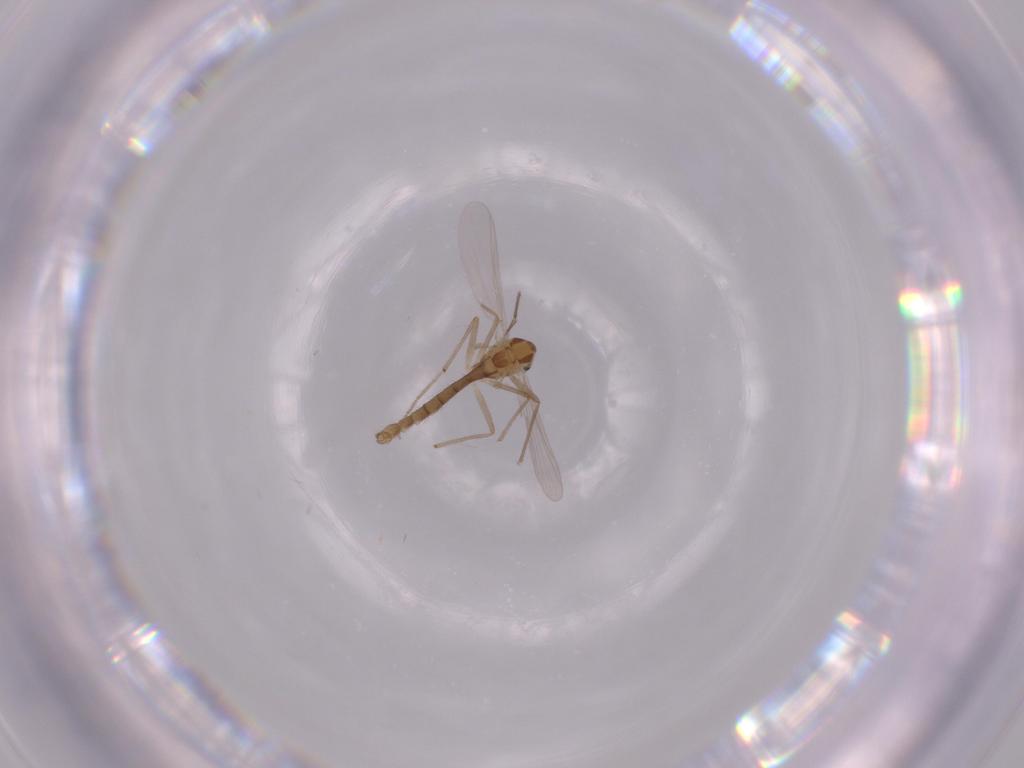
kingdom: Animalia
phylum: Arthropoda
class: Insecta
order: Diptera
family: Chironomidae
